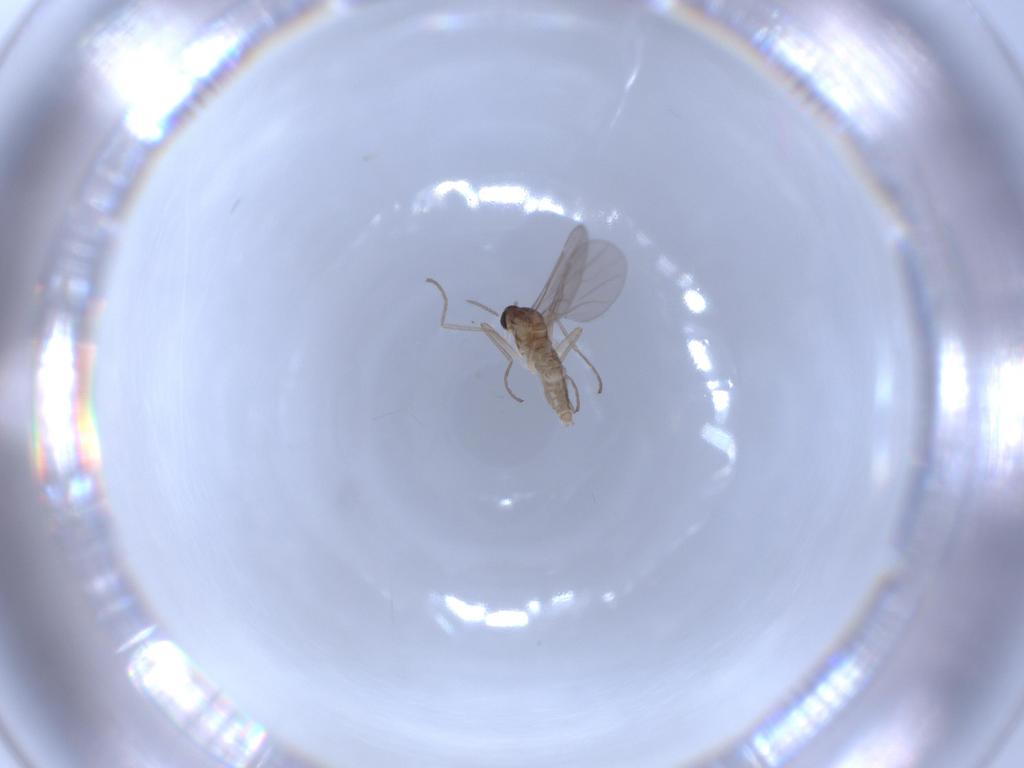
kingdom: Animalia
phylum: Arthropoda
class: Insecta
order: Diptera
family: Cecidomyiidae
